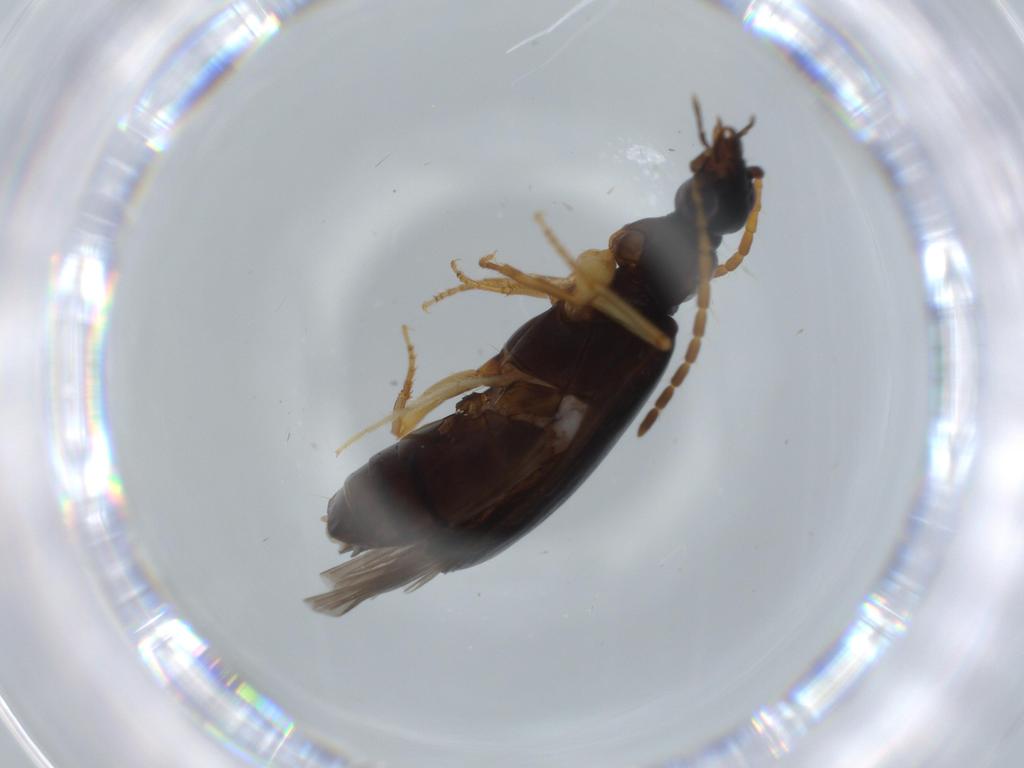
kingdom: Animalia
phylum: Arthropoda
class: Insecta
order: Coleoptera
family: Carabidae
